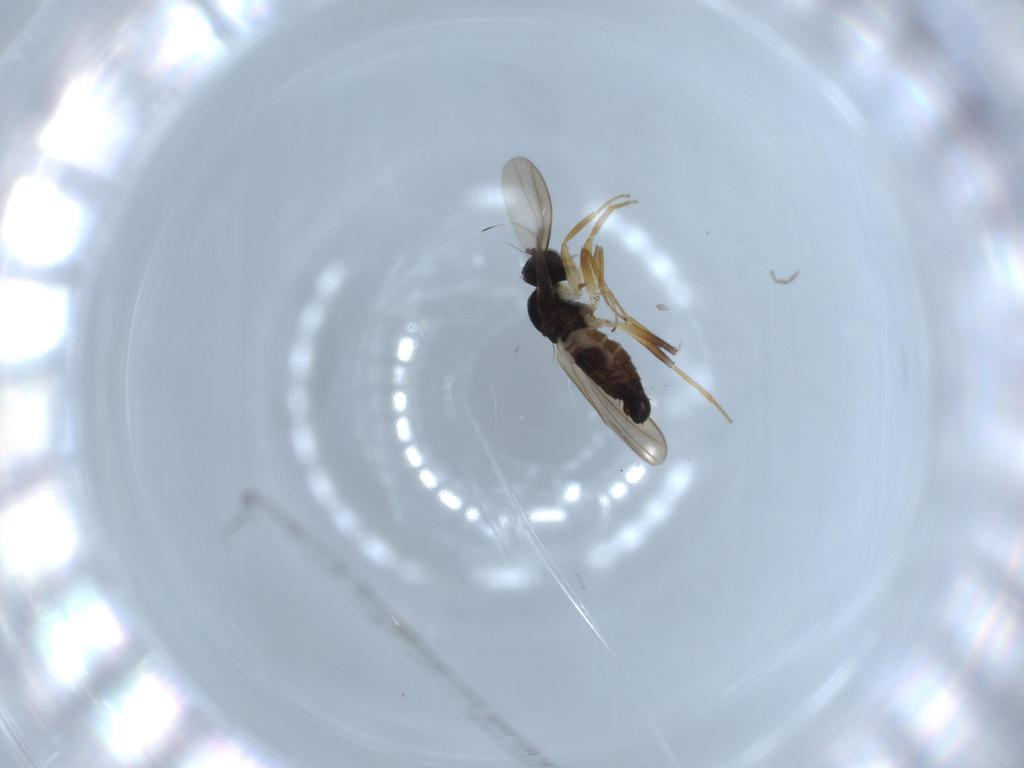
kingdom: Animalia
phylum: Arthropoda
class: Insecta
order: Diptera
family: Hybotidae
